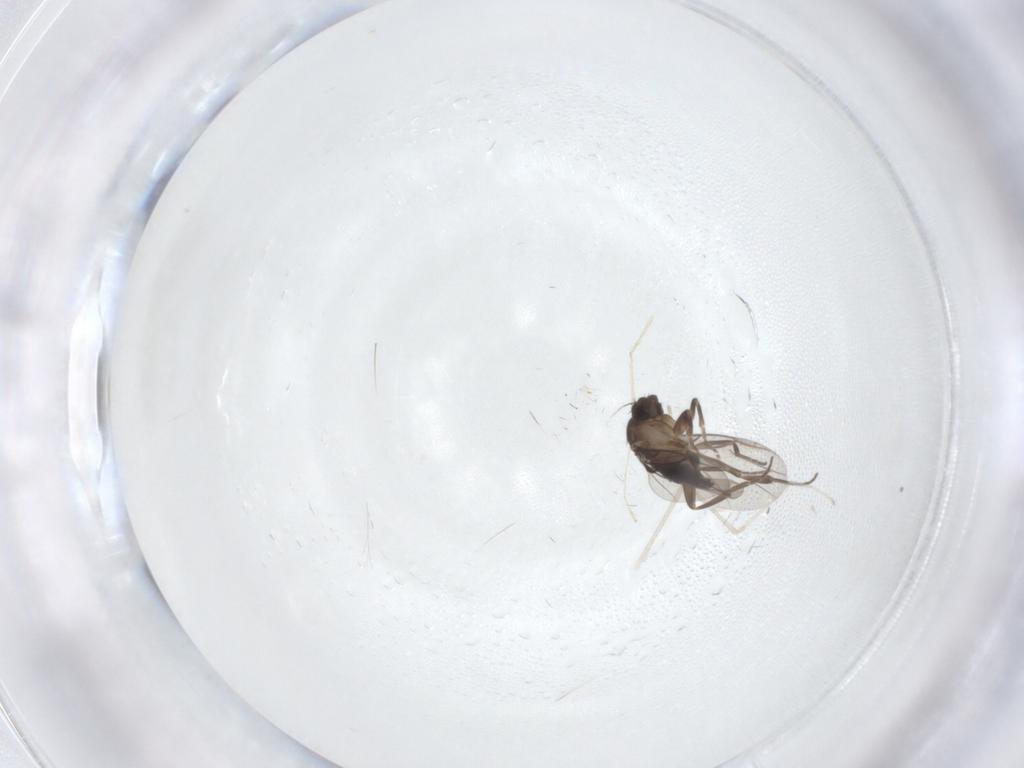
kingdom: Animalia
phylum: Arthropoda
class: Insecta
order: Diptera
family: Cecidomyiidae
